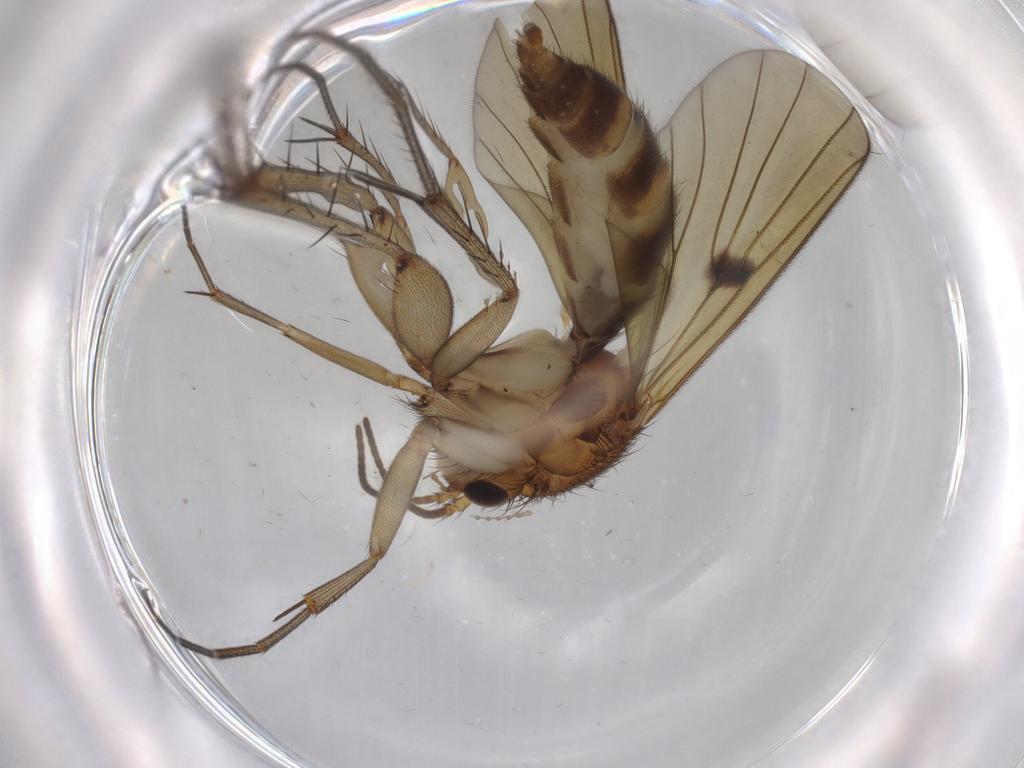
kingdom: Animalia
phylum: Arthropoda
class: Insecta
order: Diptera
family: Mycetophilidae
